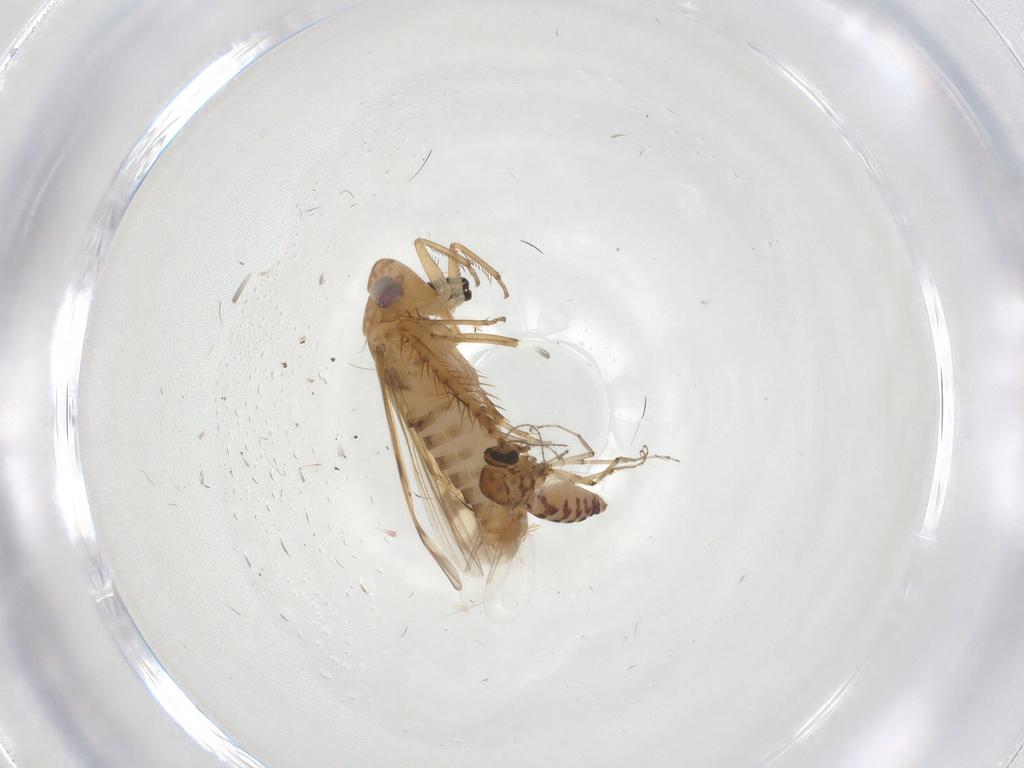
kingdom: Animalia
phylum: Arthropoda
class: Insecta
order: Hemiptera
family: Cicadellidae
